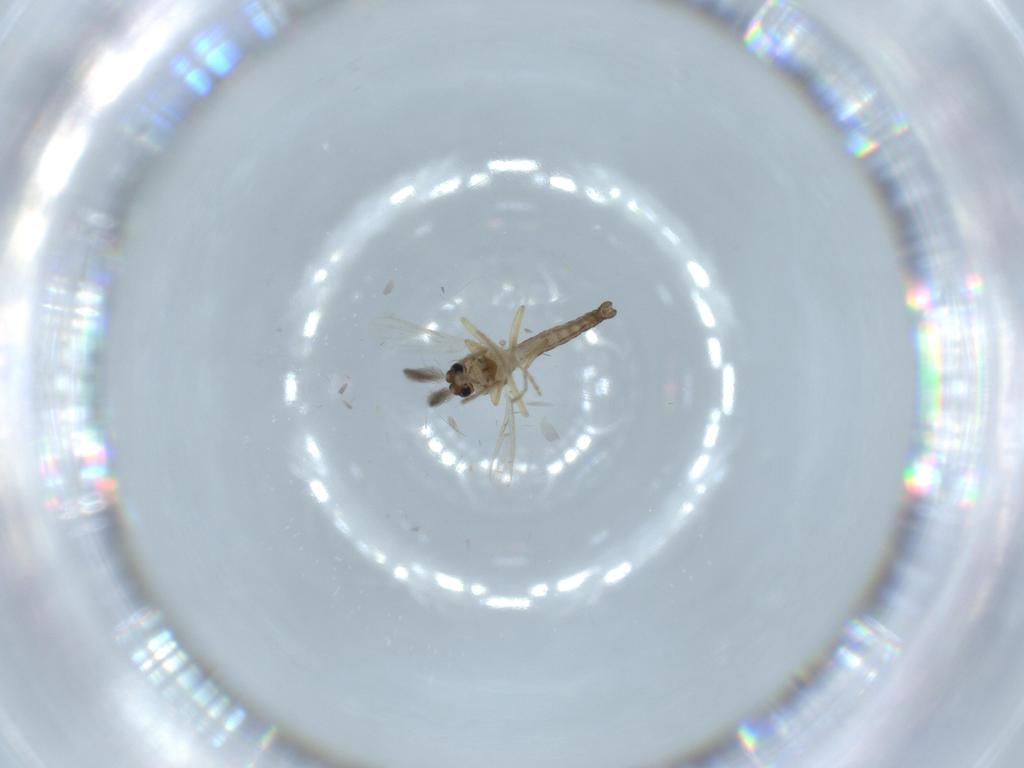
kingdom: Animalia
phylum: Arthropoda
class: Insecta
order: Diptera
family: Ceratopogonidae
